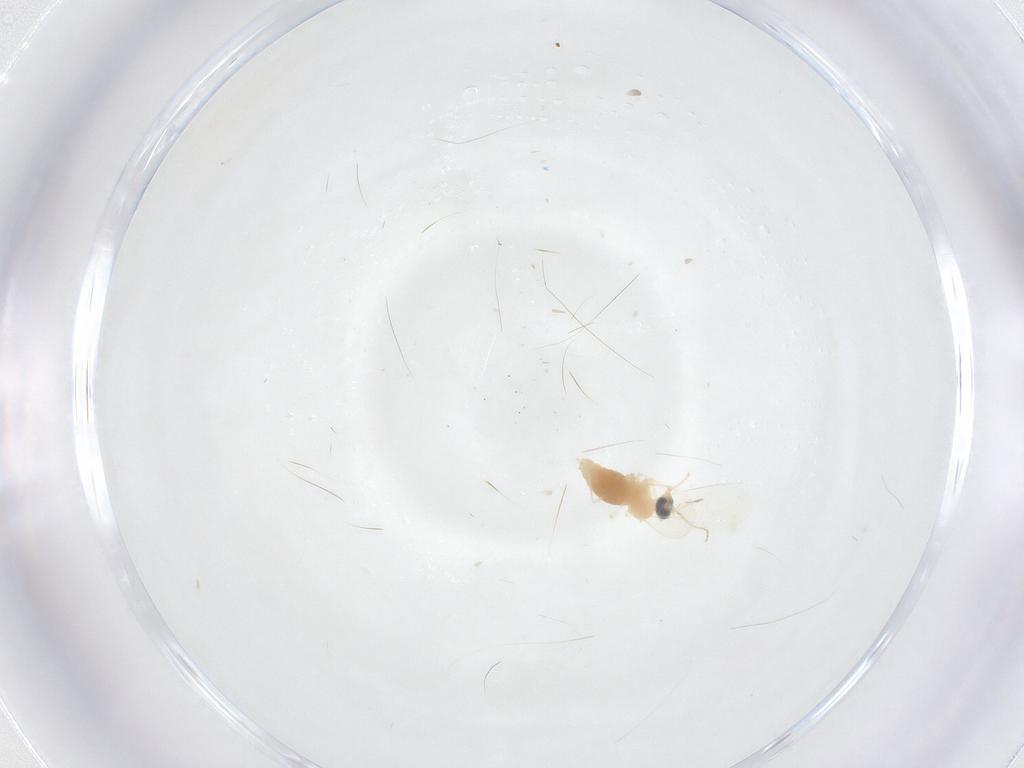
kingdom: Animalia
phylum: Arthropoda
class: Insecta
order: Diptera
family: Cecidomyiidae
